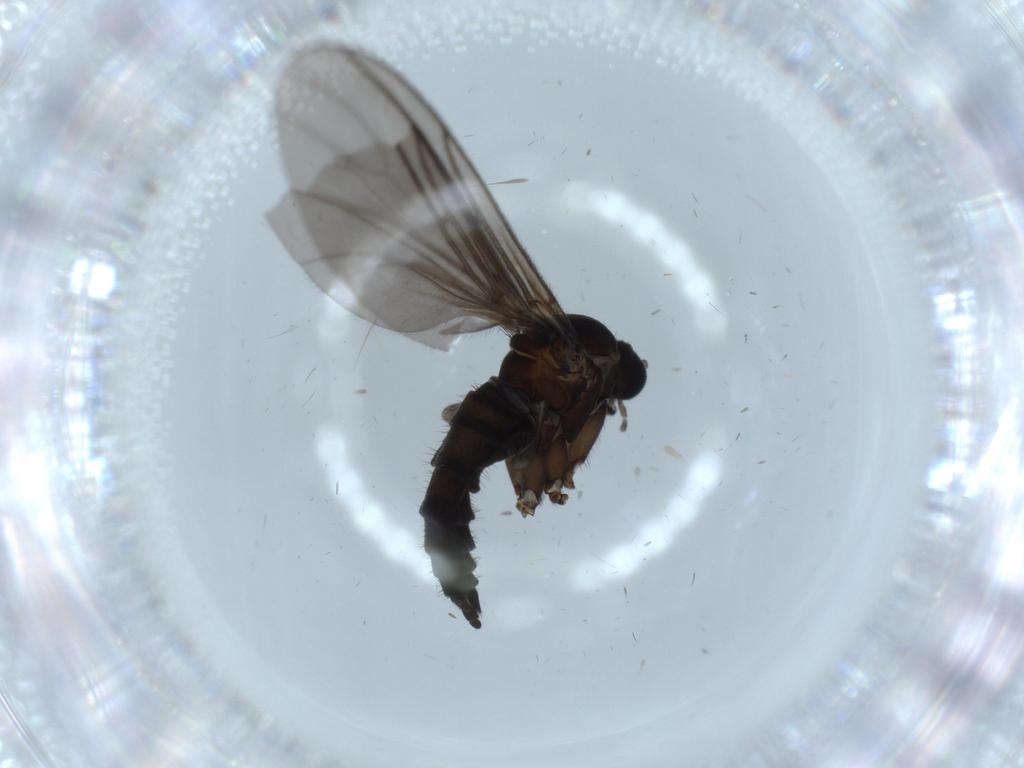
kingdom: Animalia
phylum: Arthropoda
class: Insecta
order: Diptera
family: Sciaridae
